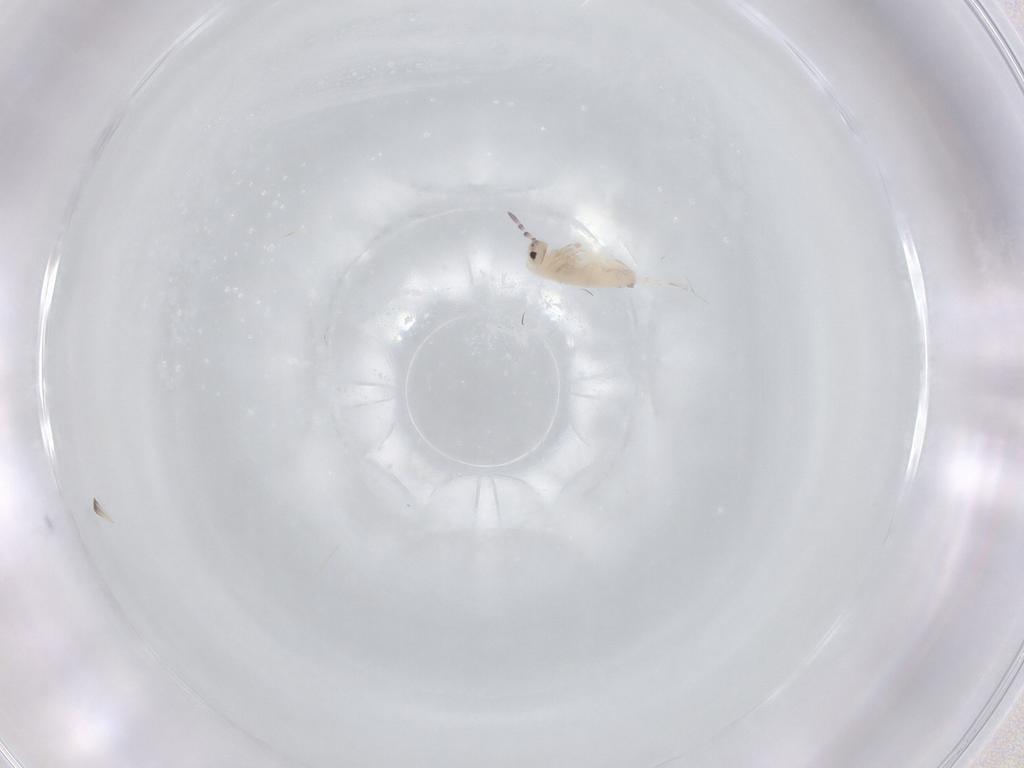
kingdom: Animalia
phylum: Arthropoda
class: Collembola
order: Entomobryomorpha
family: Entomobryidae
